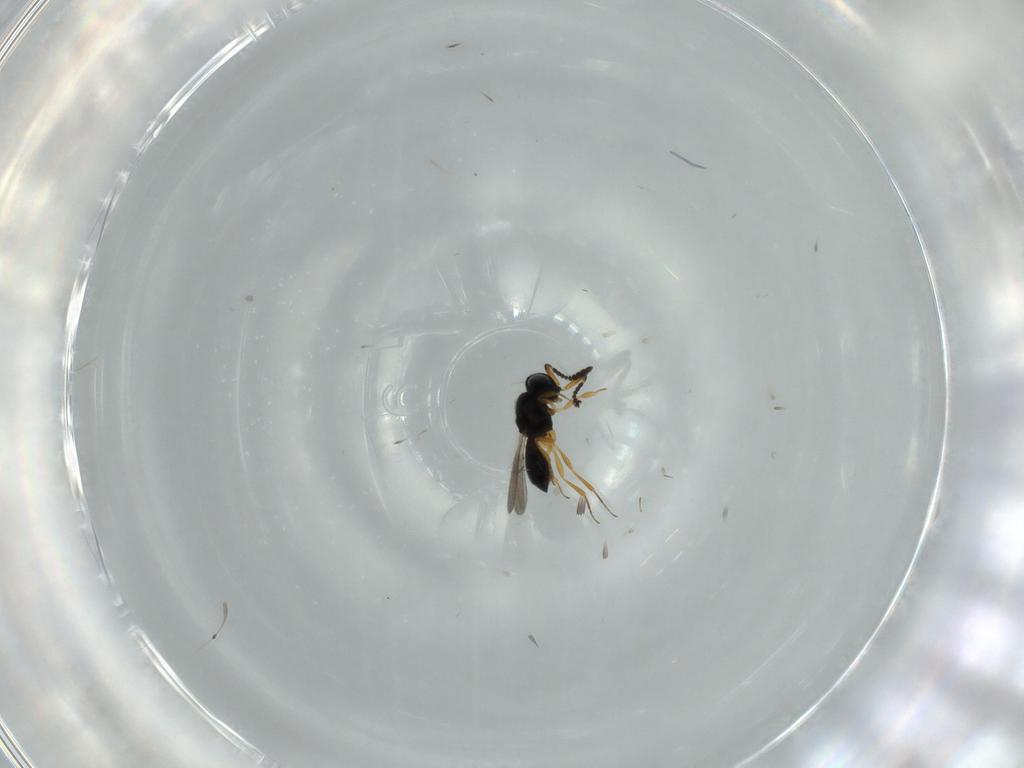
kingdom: Animalia
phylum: Arthropoda
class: Insecta
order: Hymenoptera
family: Scelionidae
